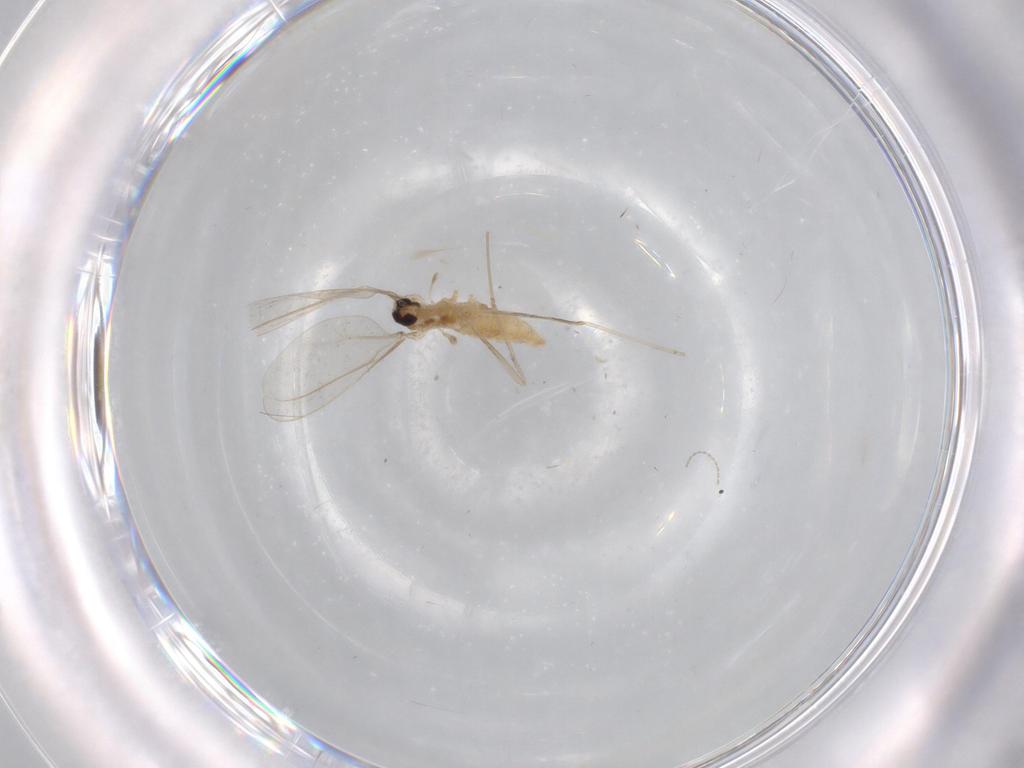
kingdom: Animalia
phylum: Arthropoda
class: Insecta
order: Diptera
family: Cecidomyiidae
